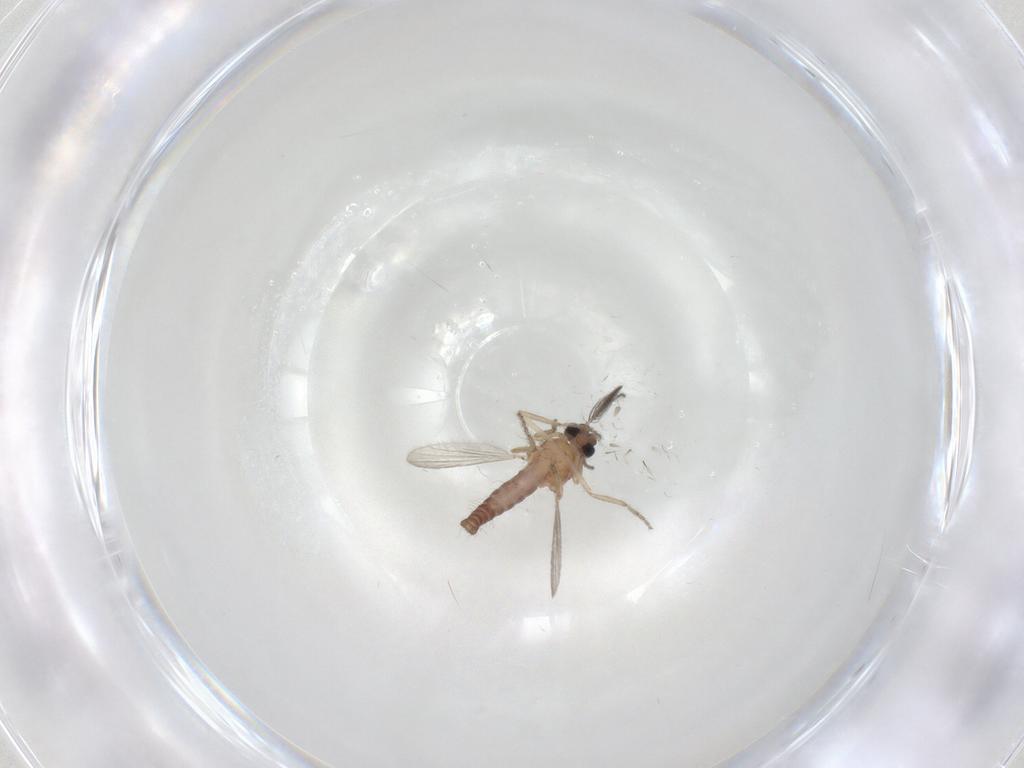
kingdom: Animalia
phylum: Arthropoda
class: Insecta
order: Diptera
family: Ceratopogonidae
